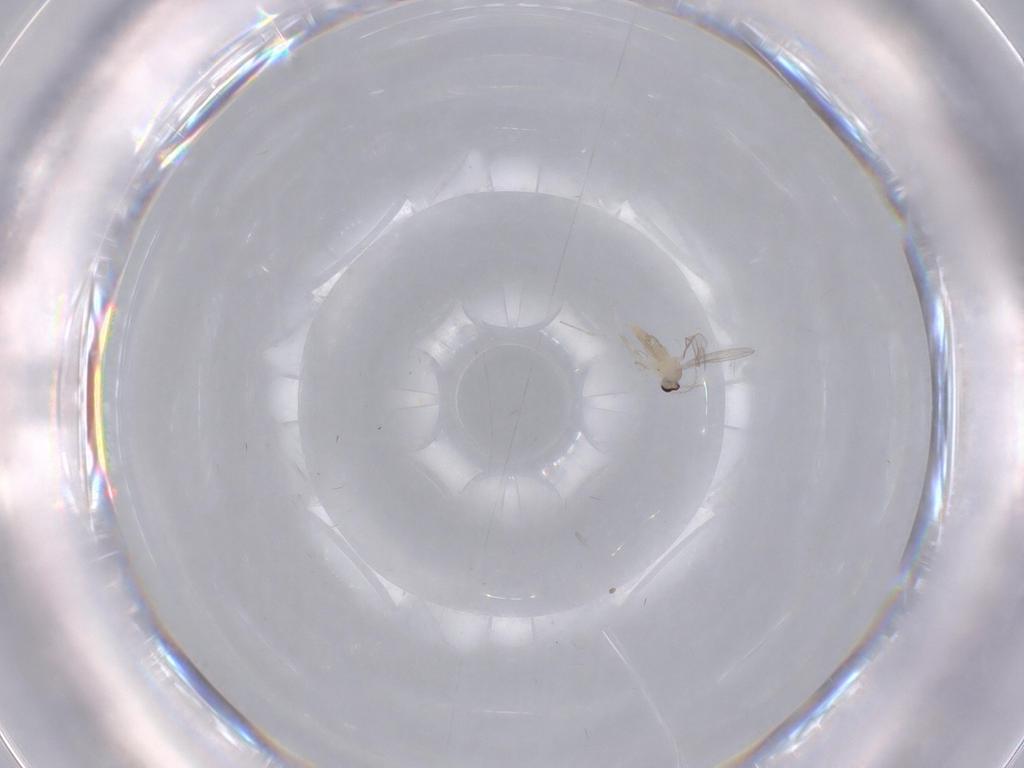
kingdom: Animalia
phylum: Arthropoda
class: Insecta
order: Diptera
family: Cecidomyiidae
